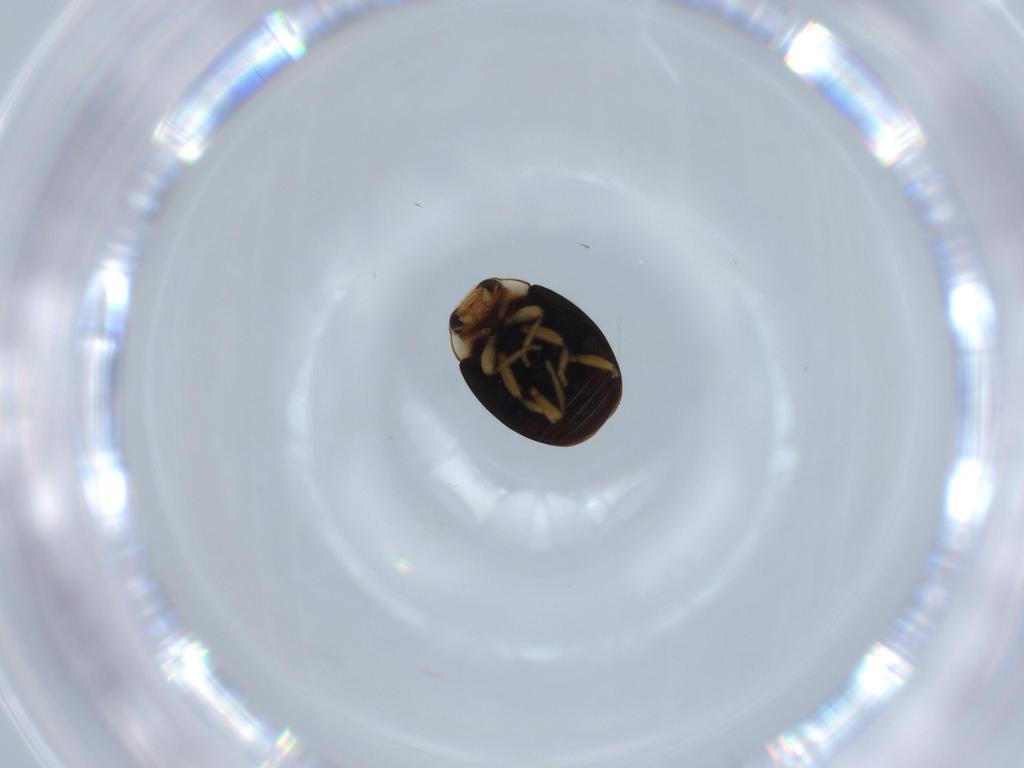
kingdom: Animalia
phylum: Arthropoda
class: Insecta
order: Coleoptera
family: Coccinellidae
